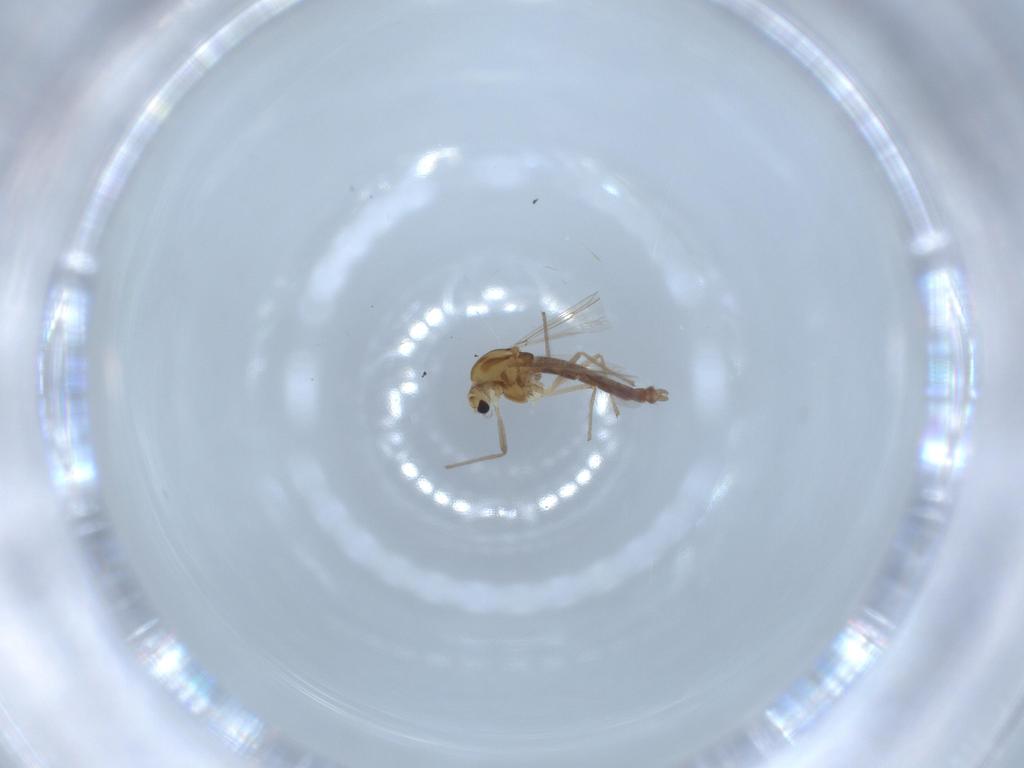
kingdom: Animalia
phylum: Arthropoda
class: Insecta
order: Diptera
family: Chironomidae
